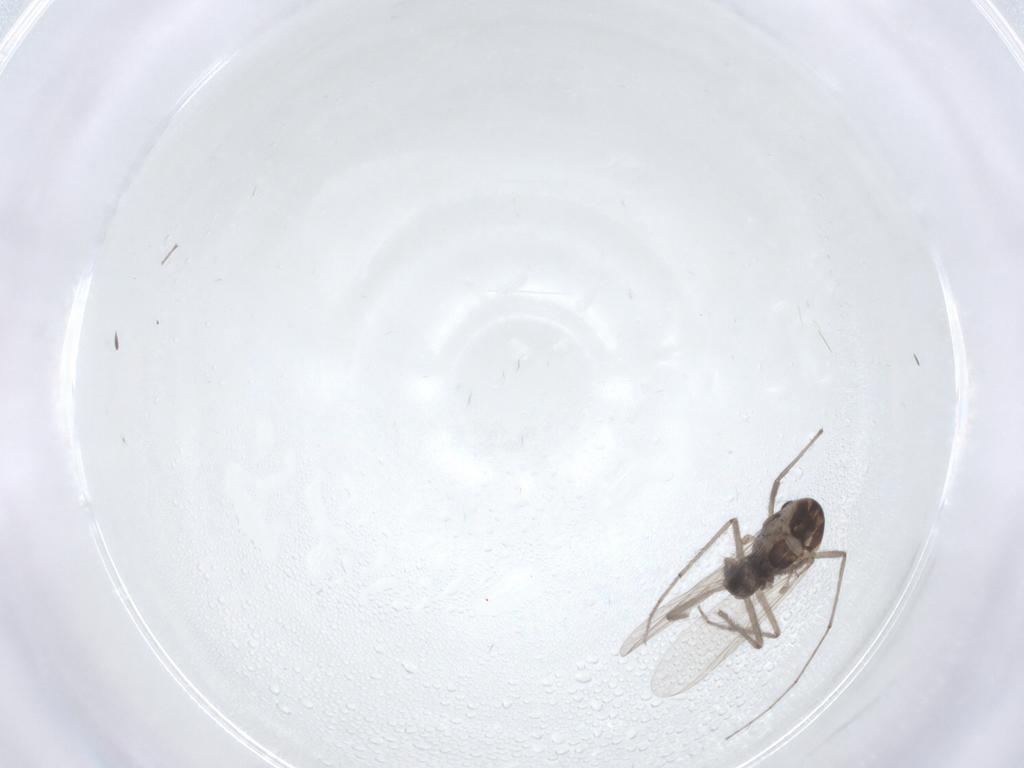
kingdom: Animalia
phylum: Arthropoda
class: Insecta
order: Diptera
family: Chironomidae
